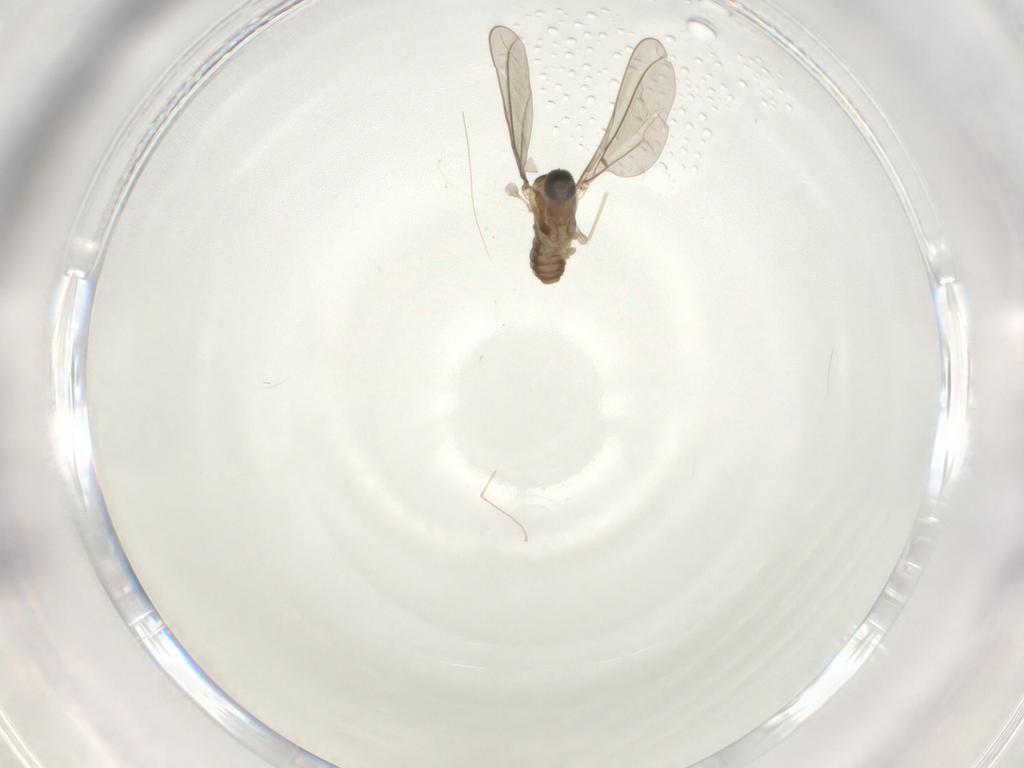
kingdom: Animalia
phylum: Arthropoda
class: Insecta
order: Diptera
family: Cecidomyiidae
